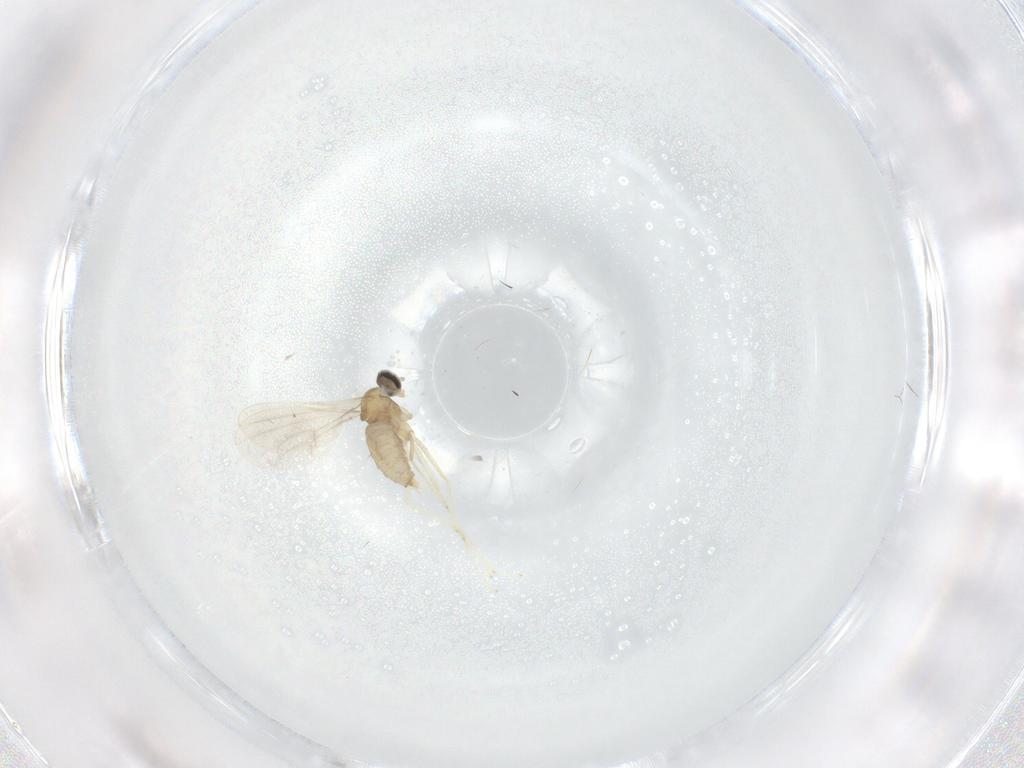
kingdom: Animalia
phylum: Arthropoda
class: Insecta
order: Diptera
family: Cecidomyiidae
